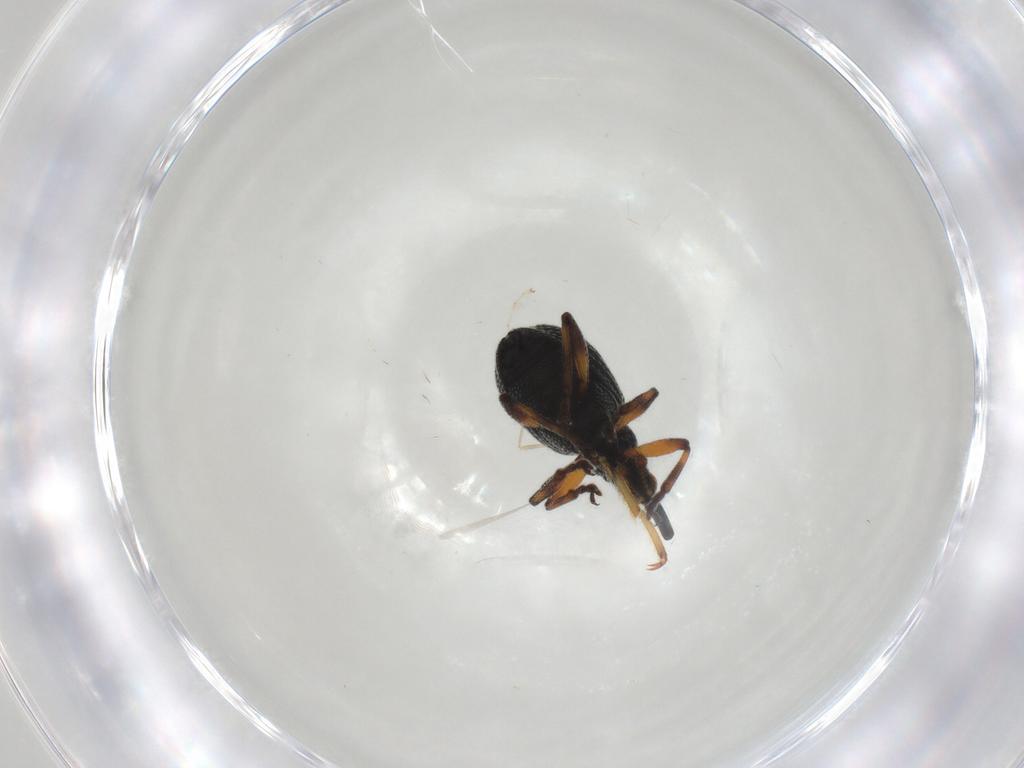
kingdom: Animalia
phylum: Arthropoda
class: Insecta
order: Coleoptera
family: Brentidae
